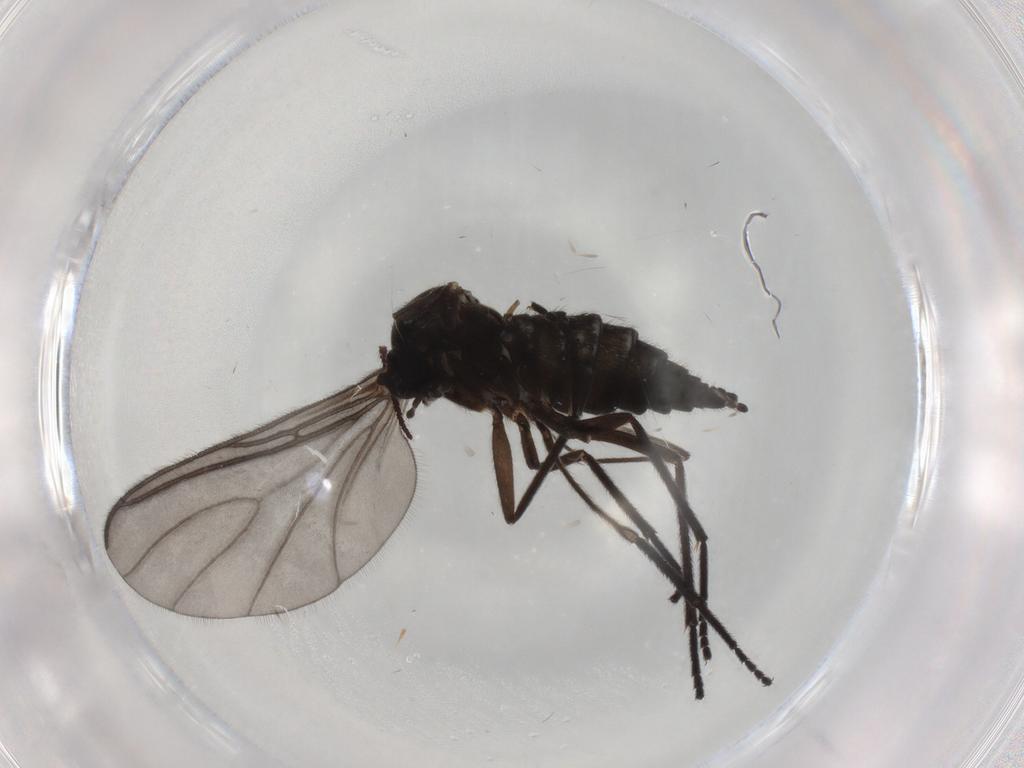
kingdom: Animalia
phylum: Arthropoda
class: Insecta
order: Diptera
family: Sciaridae
